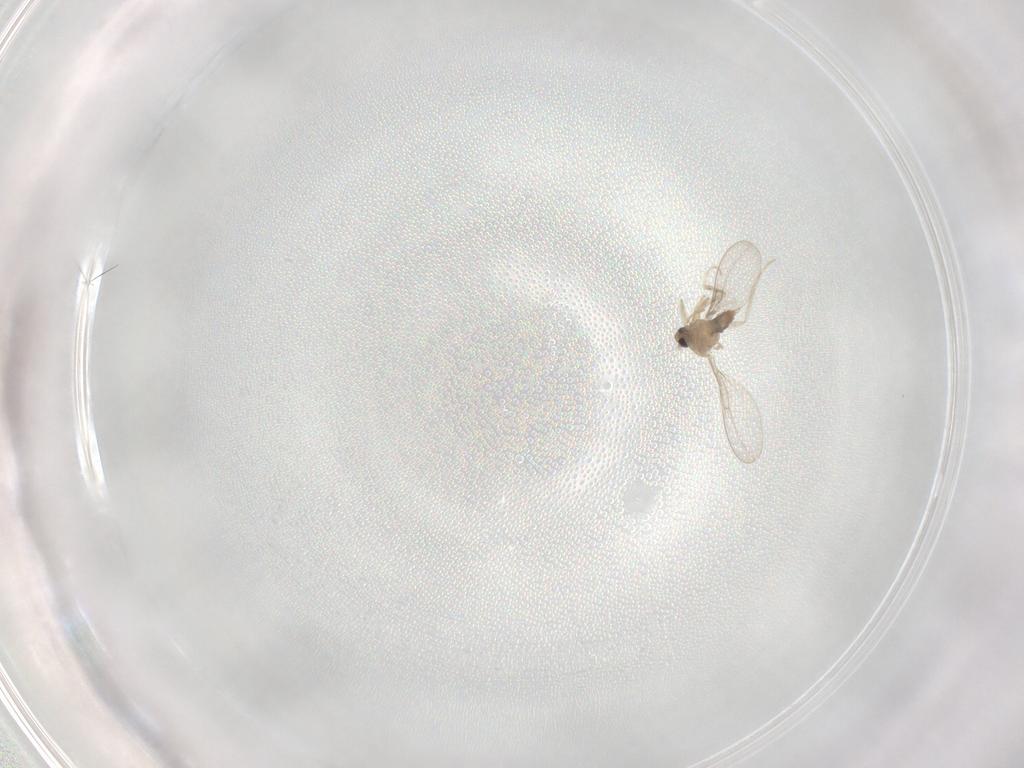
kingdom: Animalia
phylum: Arthropoda
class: Insecta
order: Diptera
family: Cecidomyiidae
